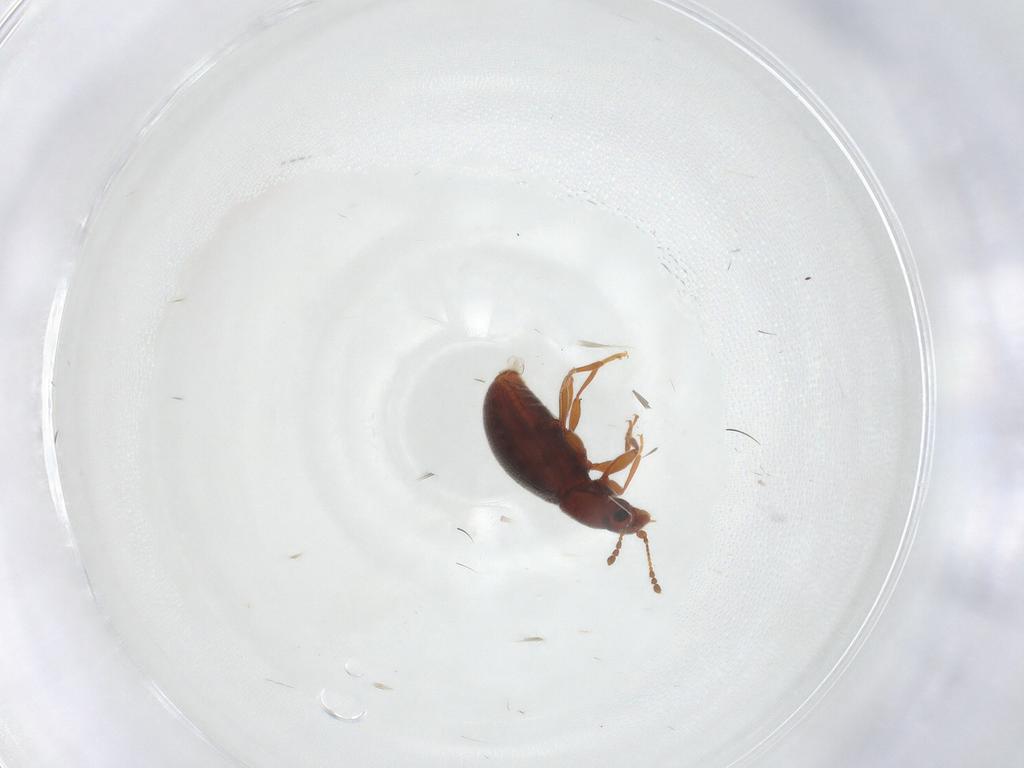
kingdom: Animalia
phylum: Arthropoda
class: Insecta
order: Coleoptera
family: Latridiidae
